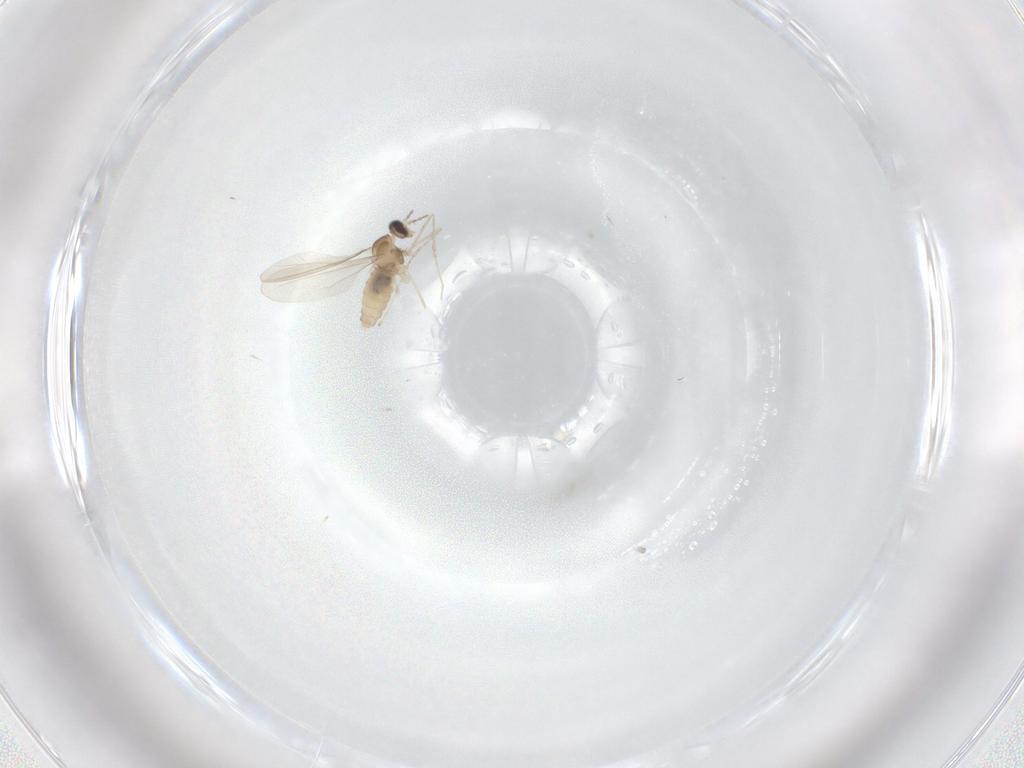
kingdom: Animalia
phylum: Arthropoda
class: Insecta
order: Diptera
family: Cecidomyiidae
